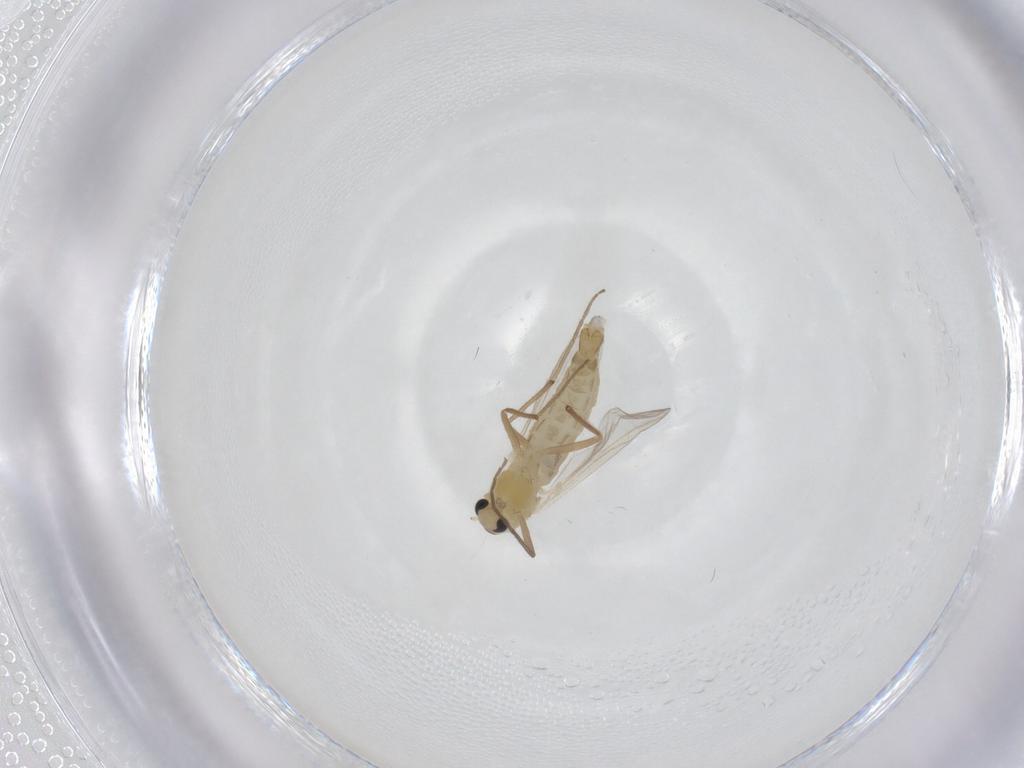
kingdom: Animalia
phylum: Arthropoda
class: Insecta
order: Diptera
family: Chironomidae
